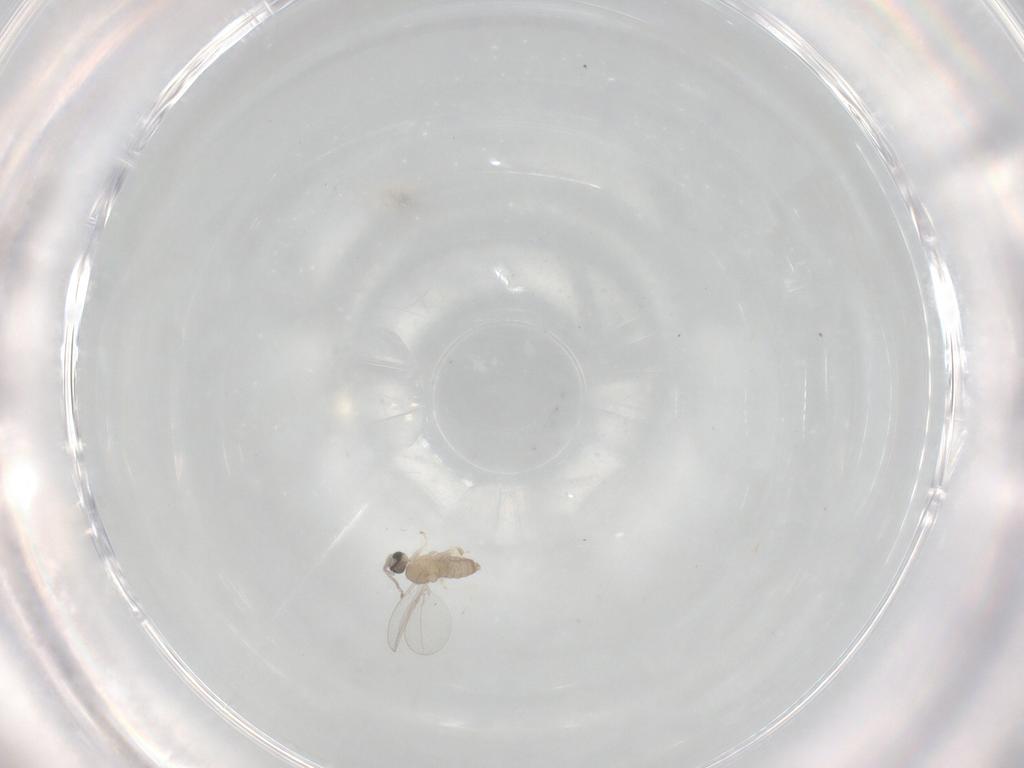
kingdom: Animalia
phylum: Arthropoda
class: Insecta
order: Diptera
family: Cecidomyiidae
